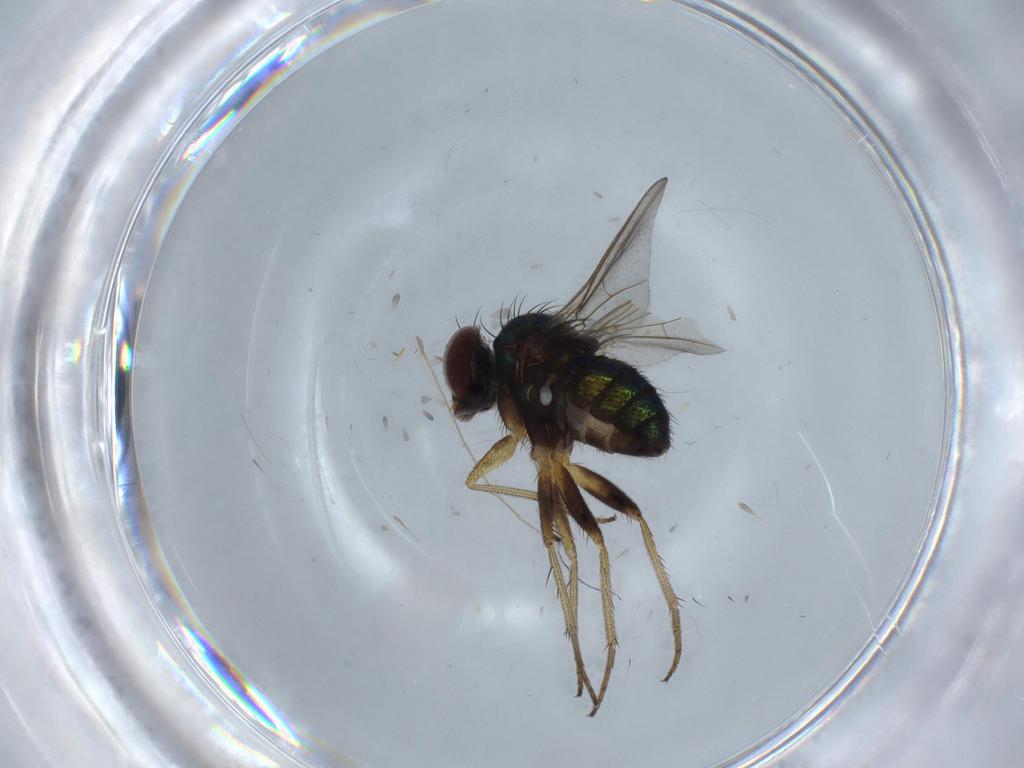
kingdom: Animalia
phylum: Arthropoda
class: Insecta
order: Diptera
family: Chironomidae
